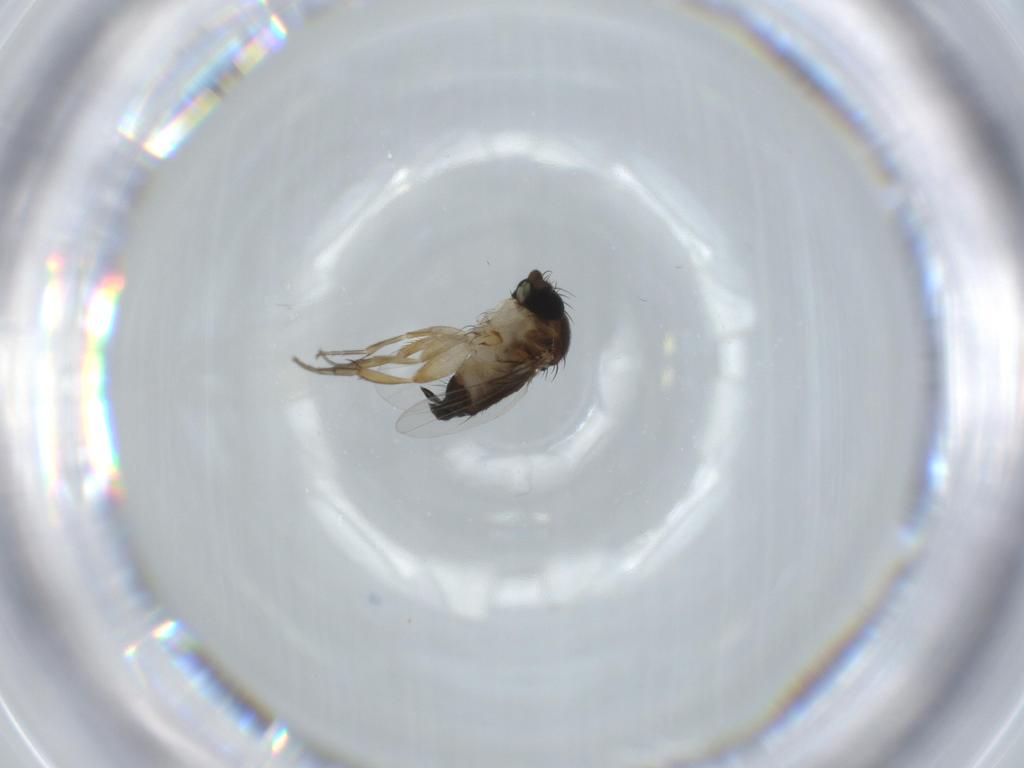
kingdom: Animalia
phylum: Arthropoda
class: Insecta
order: Diptera
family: Phoridae
